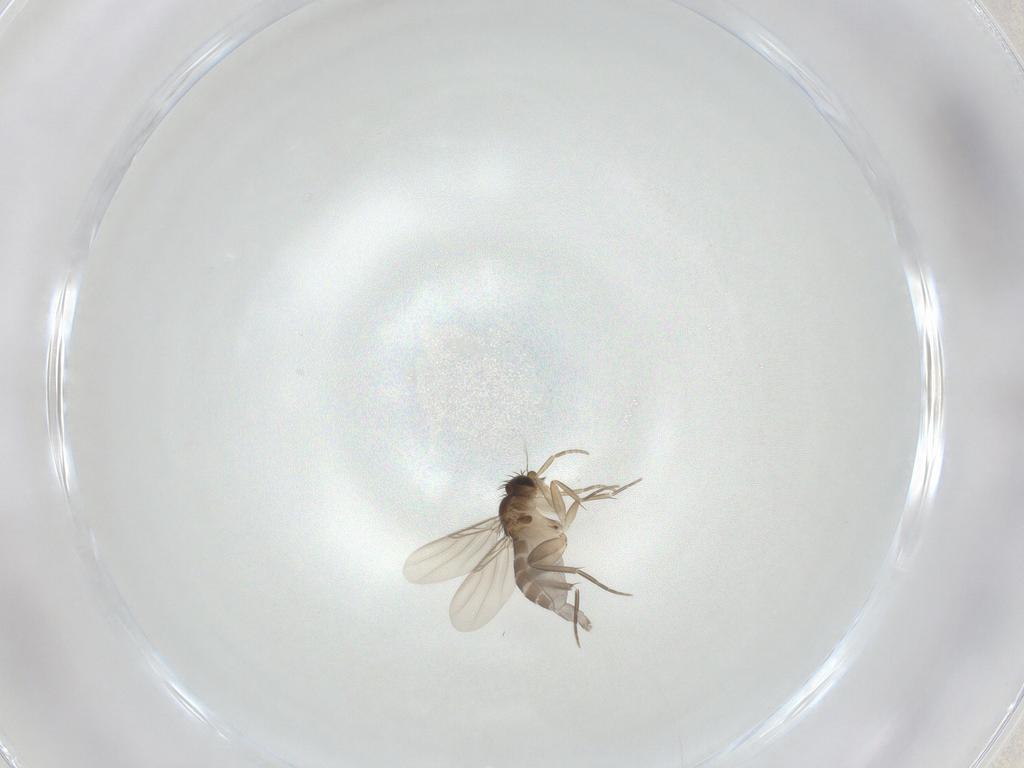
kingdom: Animalia
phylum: Arthropoda
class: Insecta
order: Diptera
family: Phoridae
